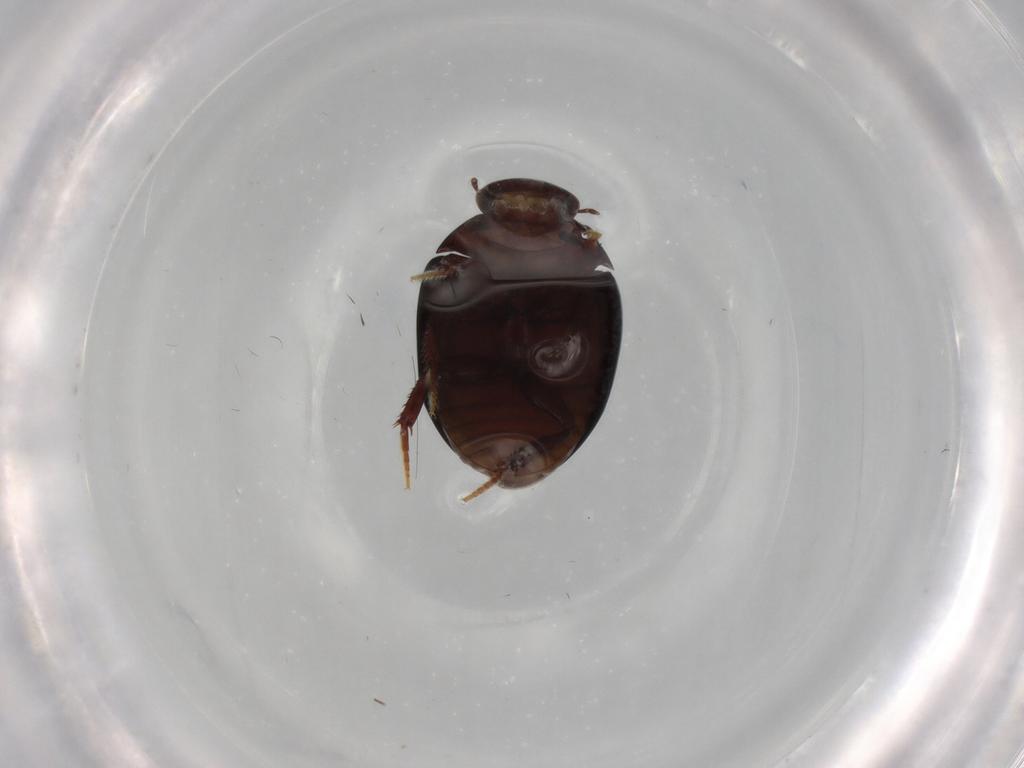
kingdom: Animalia
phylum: Arthropoda
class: Insecta
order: Coleoptera
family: Hydrophilidae
